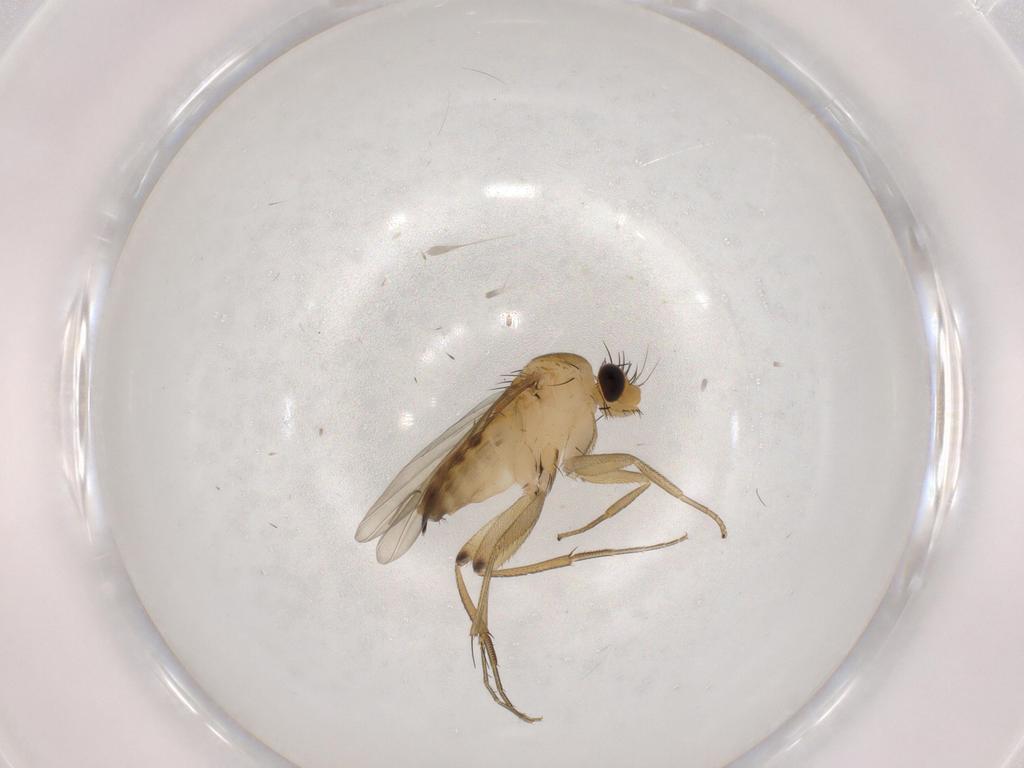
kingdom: Animalia
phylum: Arthropoda
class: Insecta
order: Diptera
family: Phoridae
